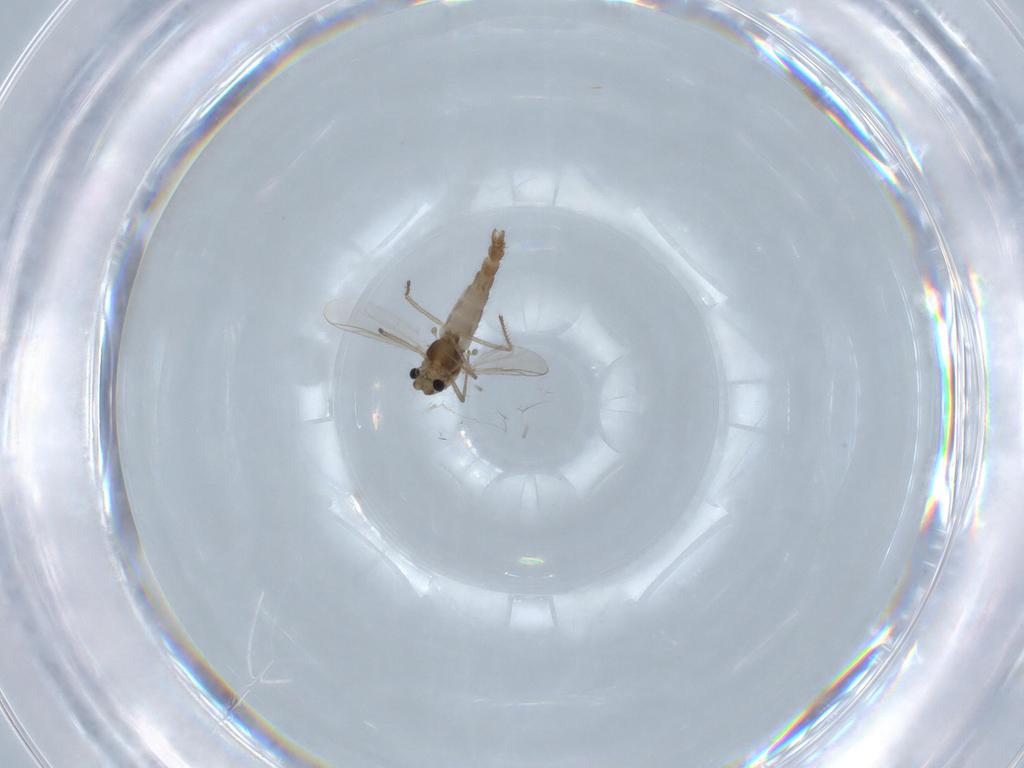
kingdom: Animalia
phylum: Arthropoda
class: Insecta
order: Diptera
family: Chironomidae
